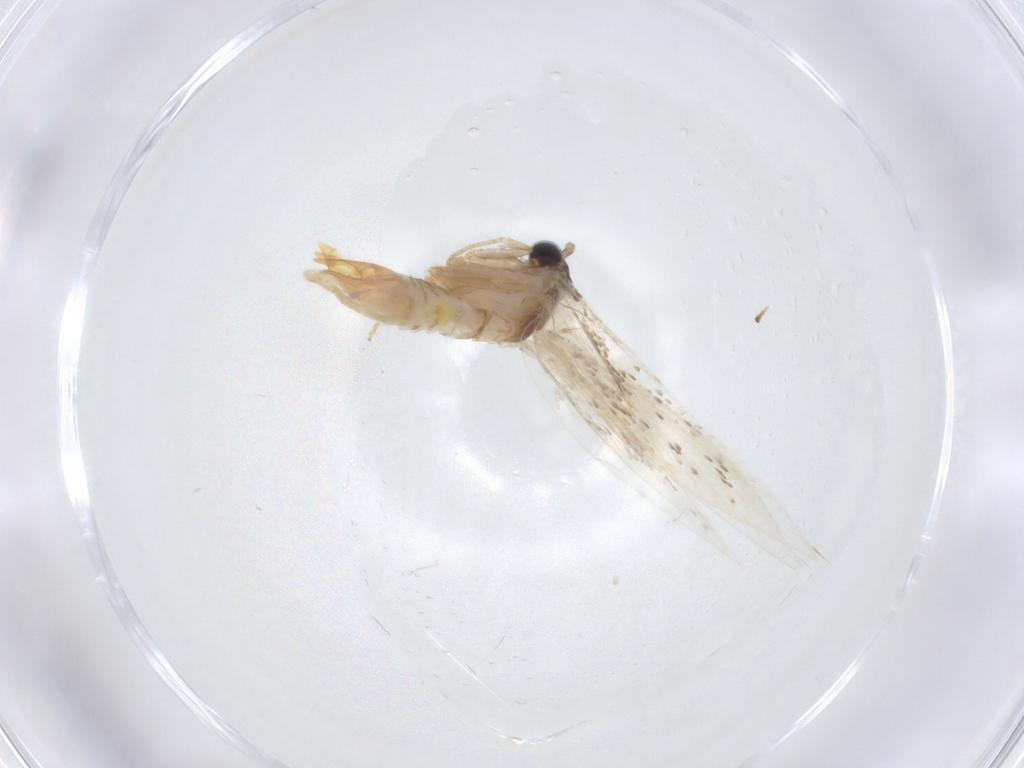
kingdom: Animalia
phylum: Arthropoda
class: Insecta
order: Lepidoptera
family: Tineidae
